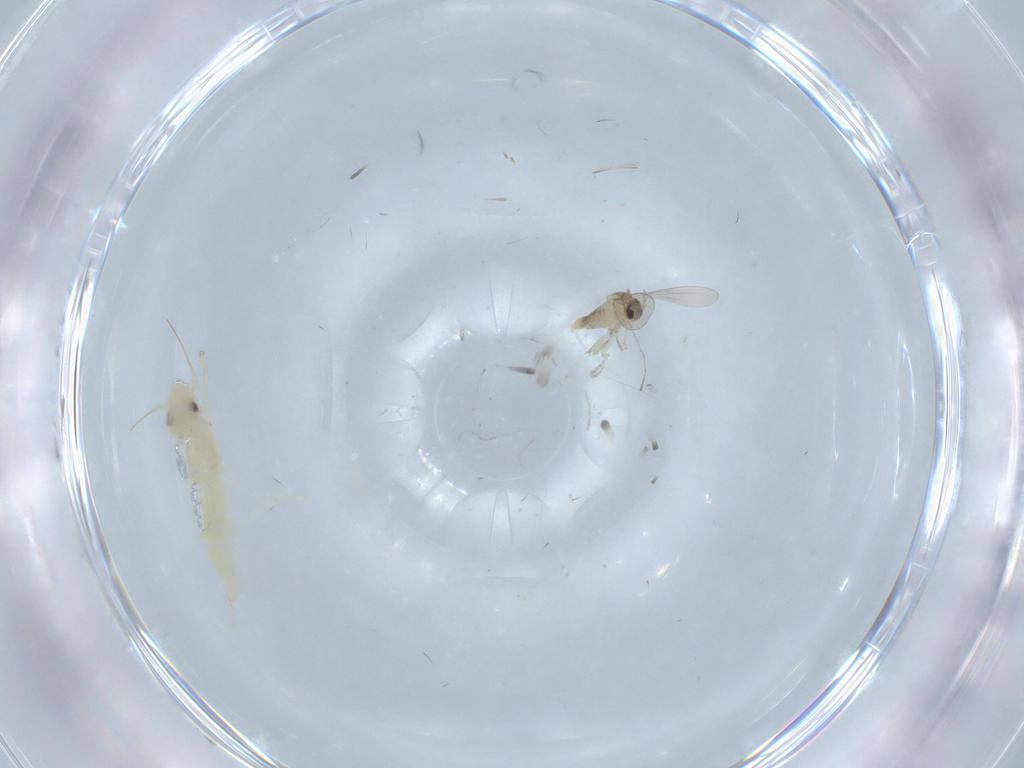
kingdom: Animalia
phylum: Arthropoda
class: Insecta
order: Diptera
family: Cecidomyiidae
